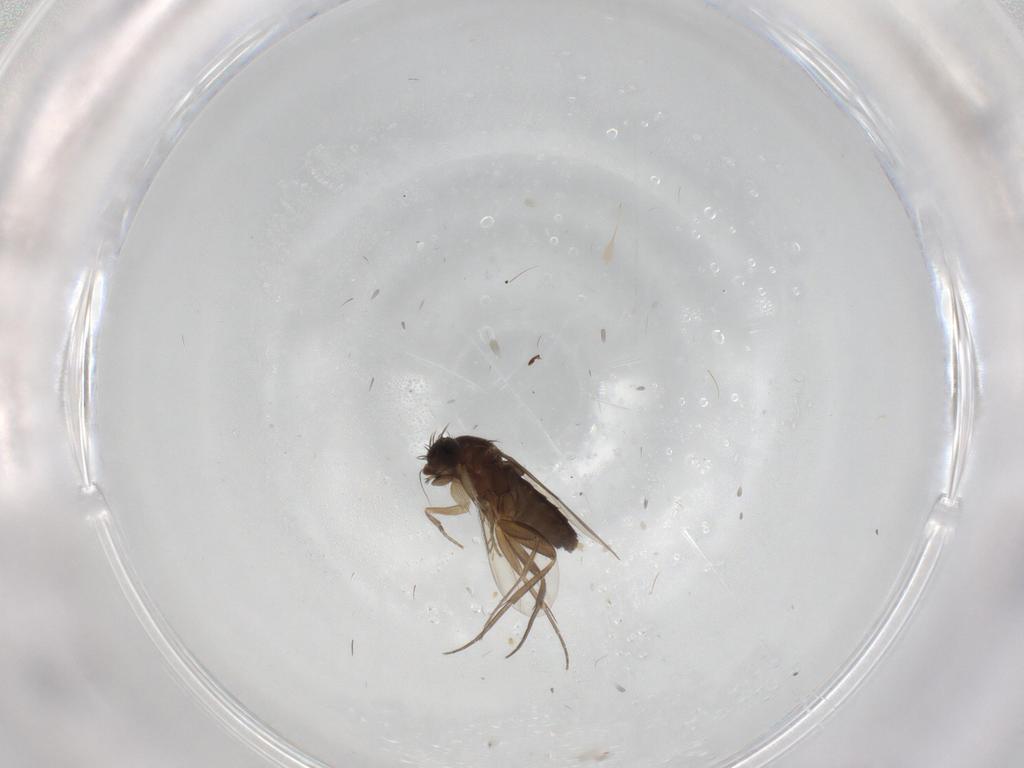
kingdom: Animalia
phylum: Arthropoda
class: Insecta
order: Diptera
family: Phoridae
